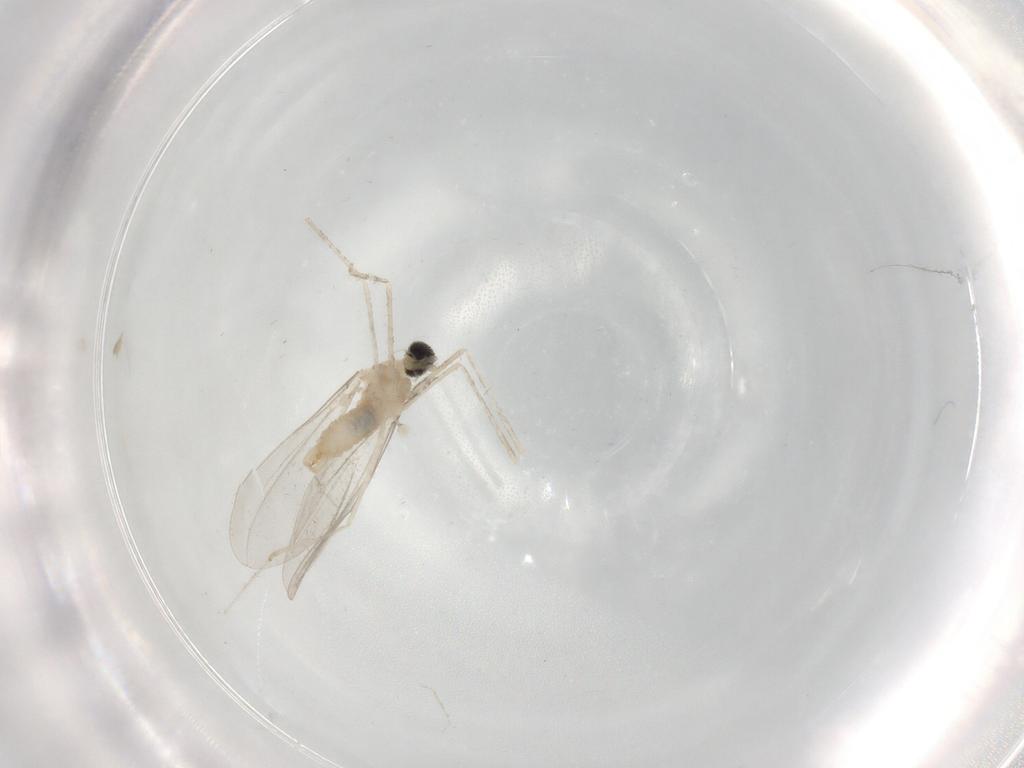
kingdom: Animalia
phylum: Arthropoda
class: Insecta
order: Diptera
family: Cecidomyiidae
